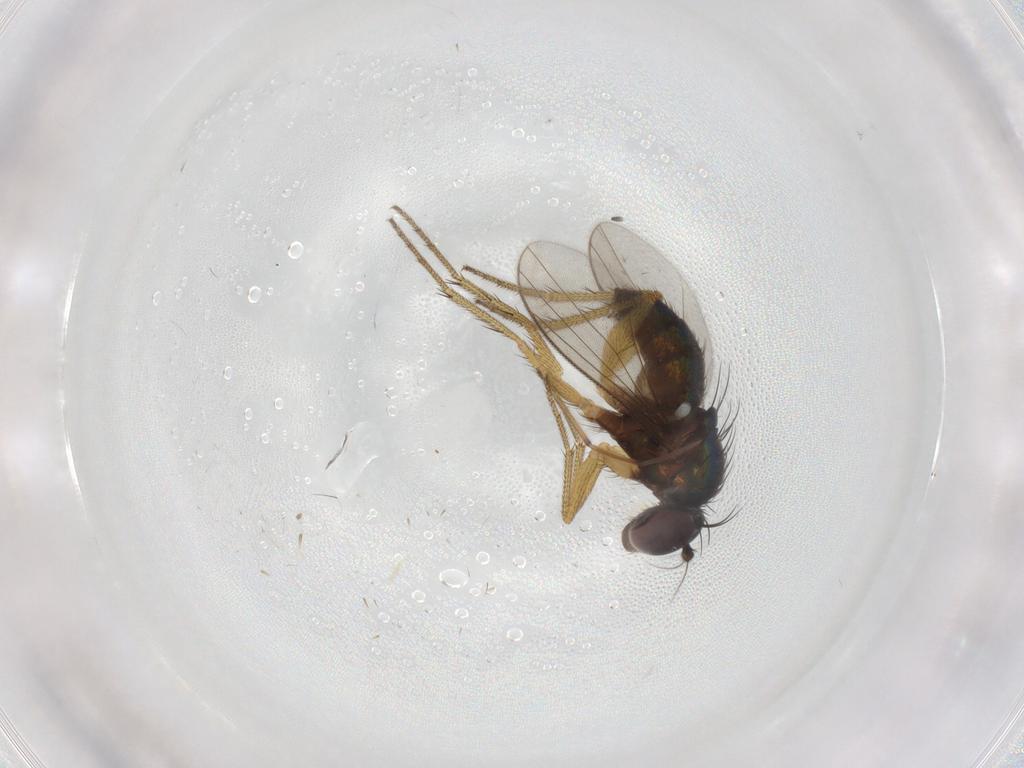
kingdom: Animalia
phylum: Arthropoda
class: Insecta
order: Diptera
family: Dolichopodidae
